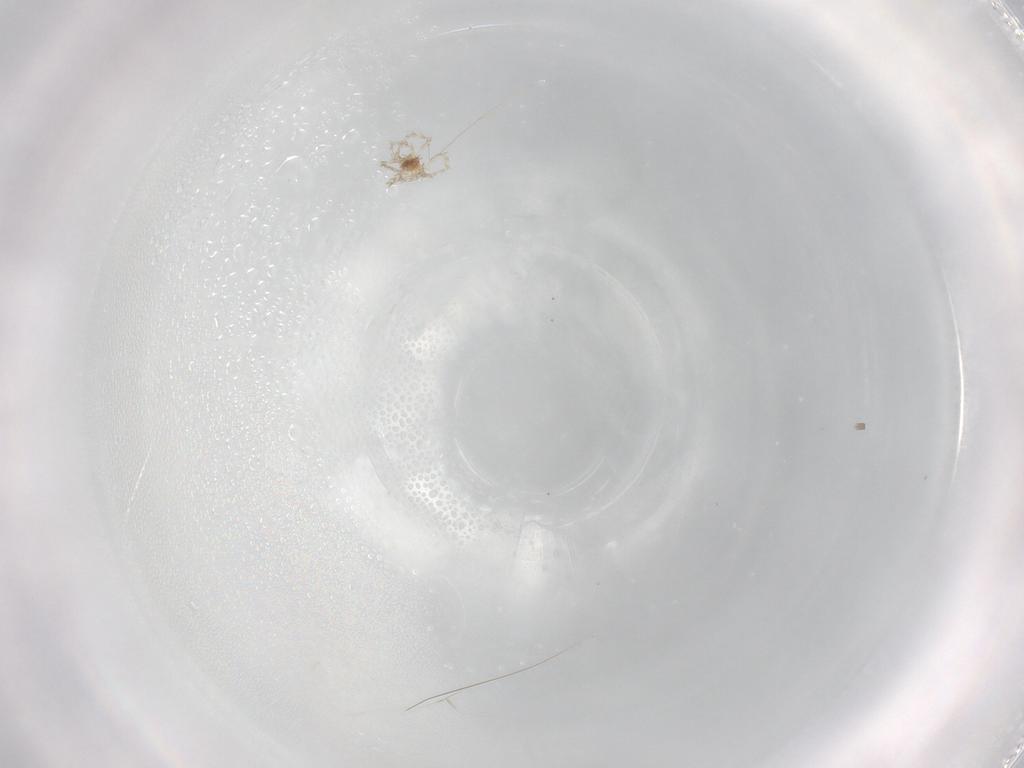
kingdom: Animalia
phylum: Arthropoda
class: Arachnida
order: Trombidiformes
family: Erythraeidae
